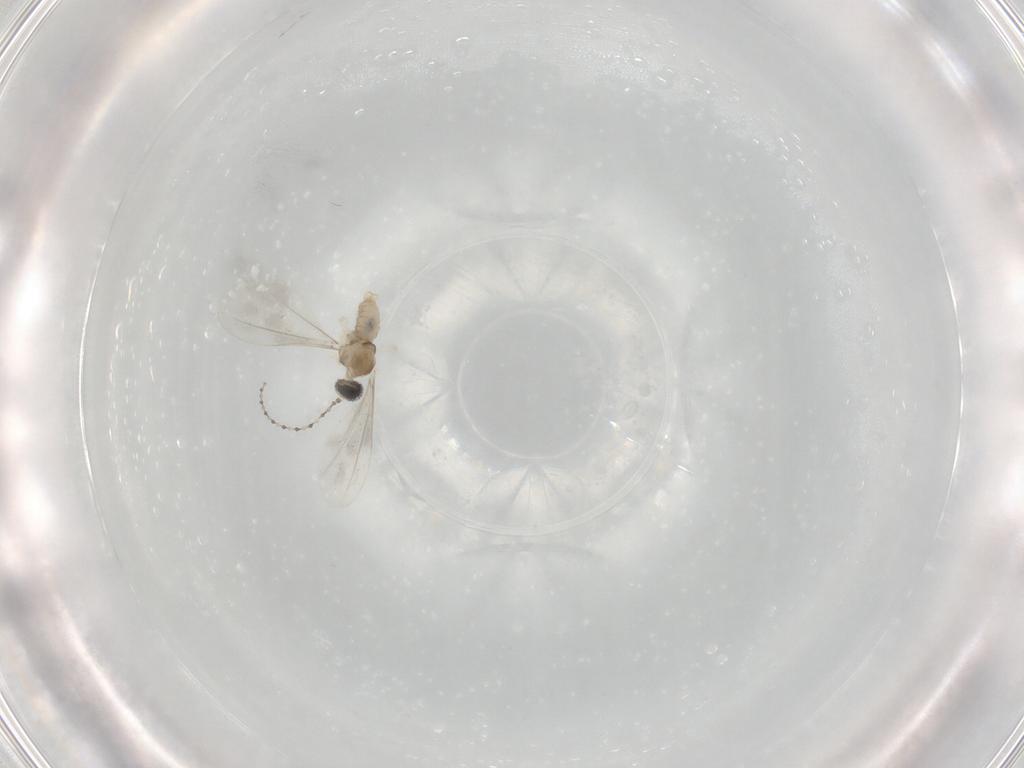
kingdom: Animalia
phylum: Arthropoda
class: Insecta
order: Diptera
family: Cecidomyiidae
